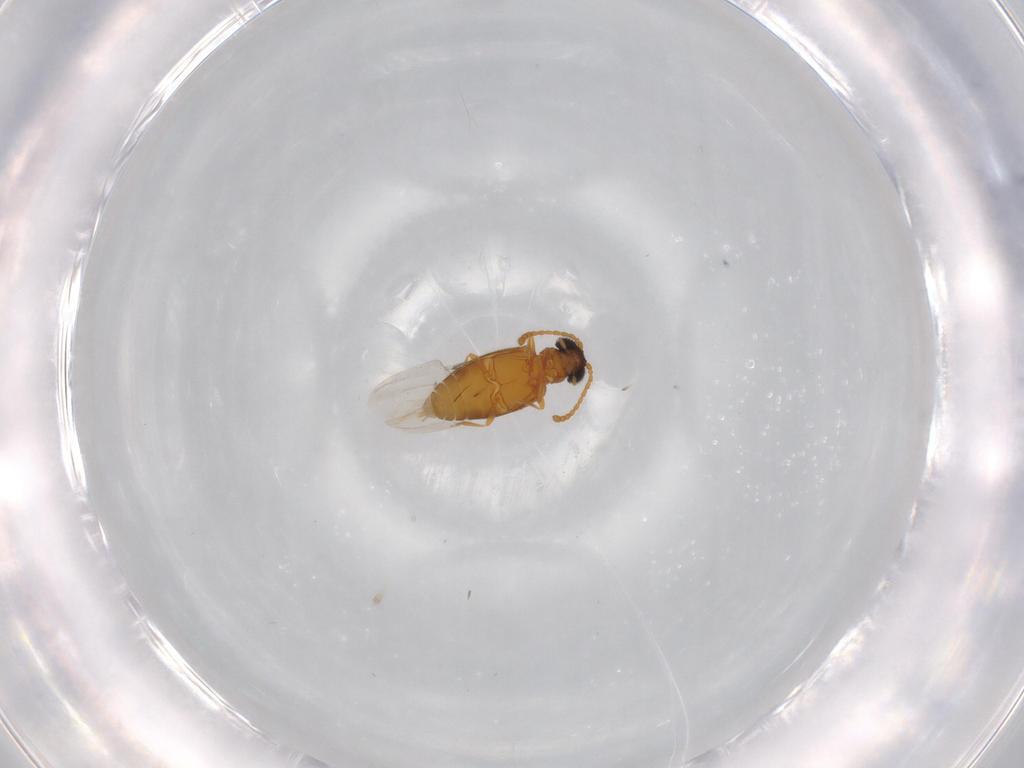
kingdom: Animalia
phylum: Arthropoda
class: Insecta
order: Coleoptera
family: Aderidae
